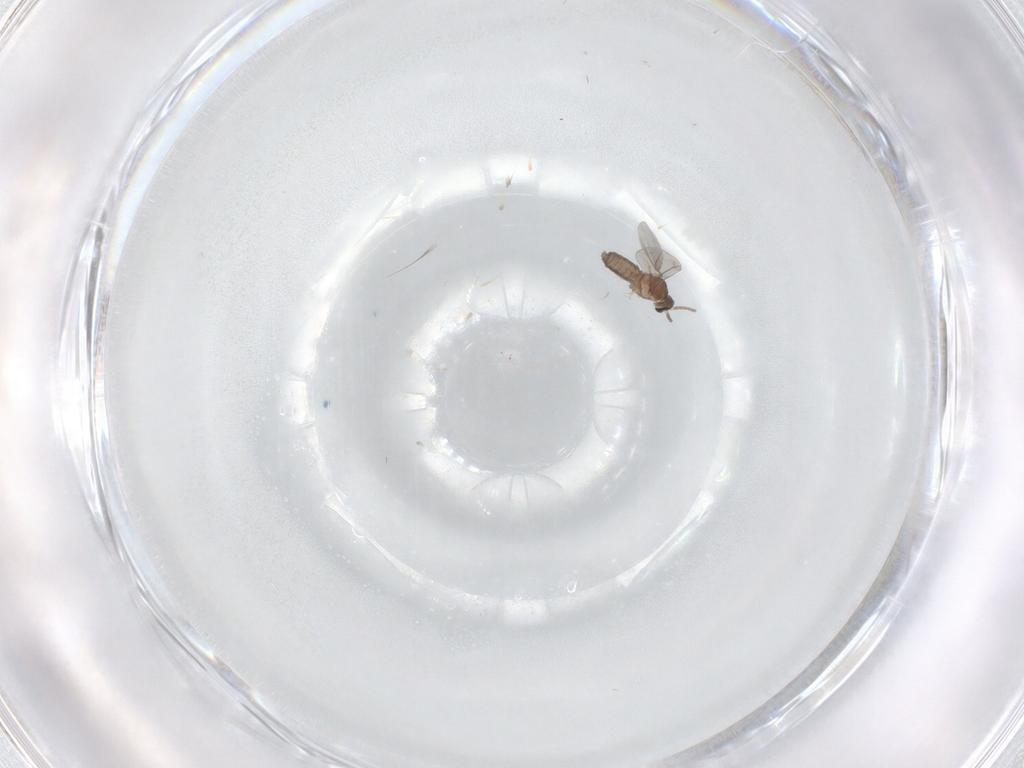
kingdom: Animalia
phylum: Arthropoda
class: Insecta
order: Diptera
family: Cecidomyiidae
